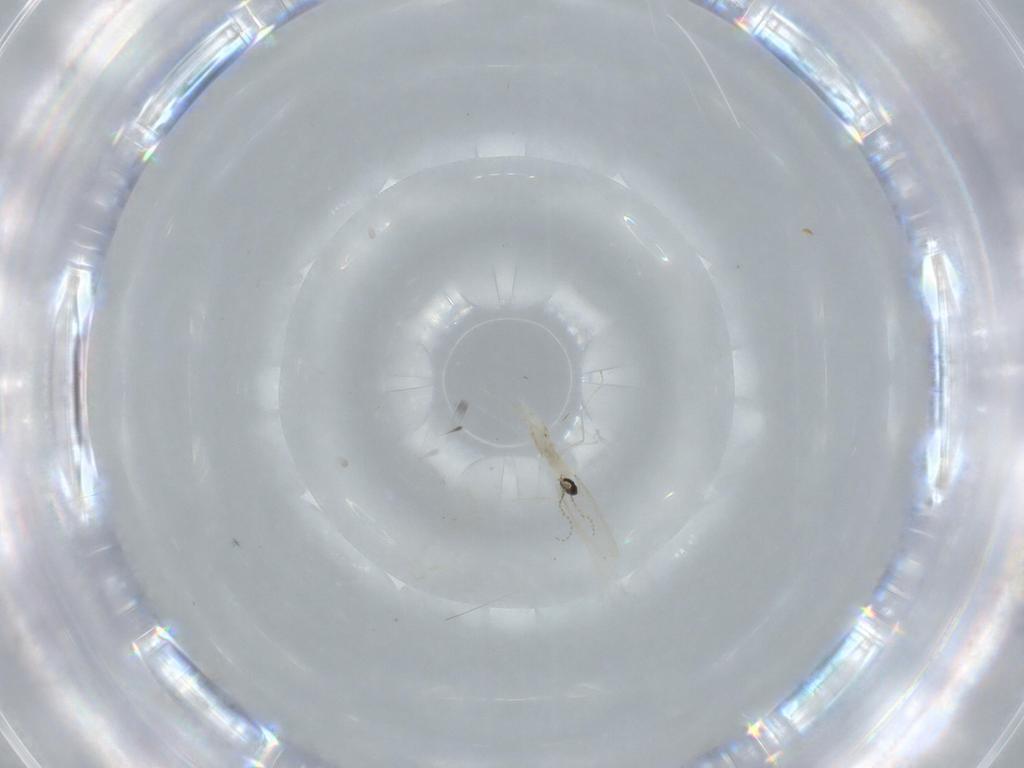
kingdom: Animalia
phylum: Arthropoda
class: Insecta
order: Diptera
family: Cecidomyiidae
